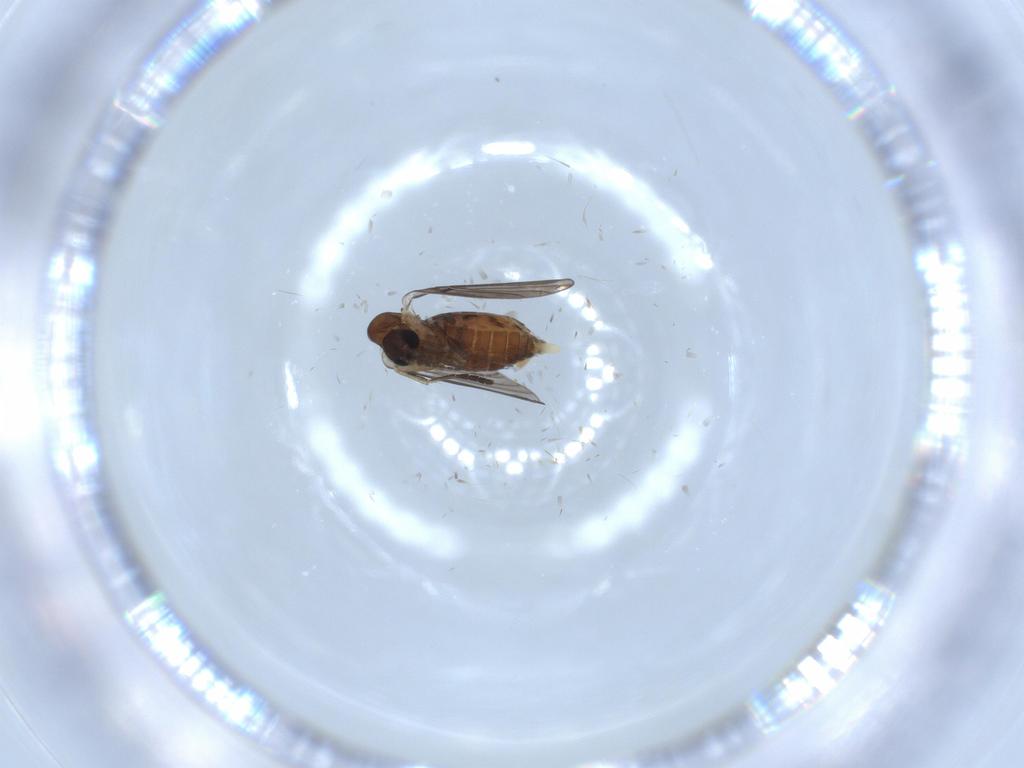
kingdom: Animalia
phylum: Arthropoda
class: Insecta
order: Diptera
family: Psychodidae
